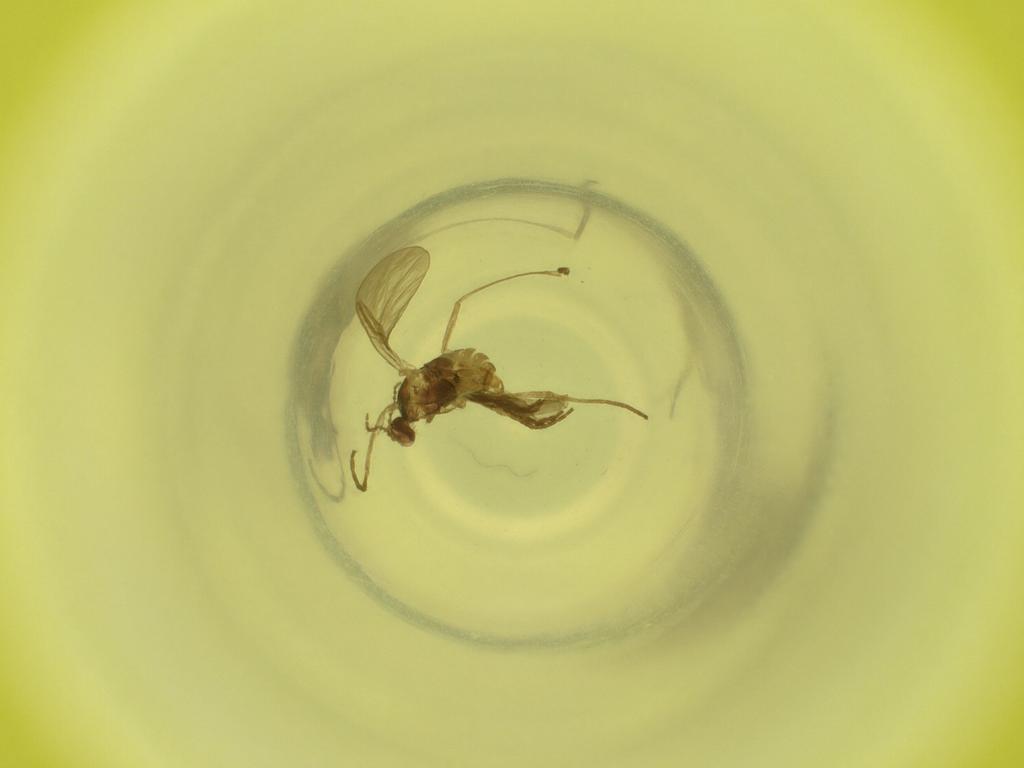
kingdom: Animalia
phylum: Arthropoda
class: Insecta
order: Diptera
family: Cecidomyiidae
